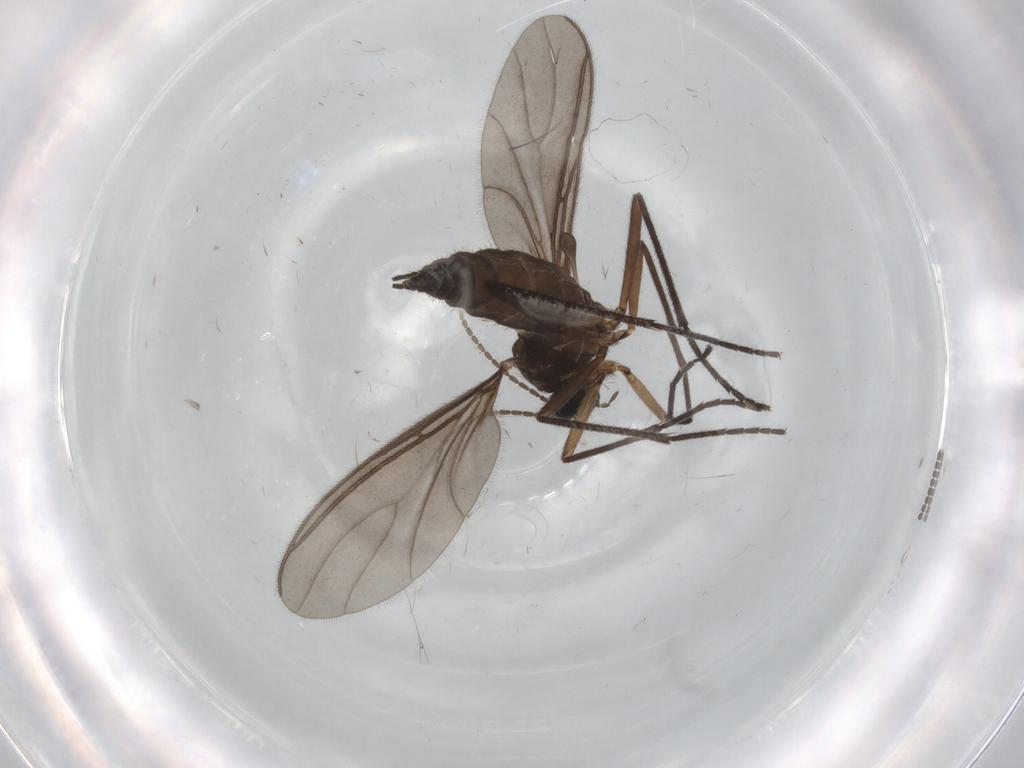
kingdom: Animalia
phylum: Arthropoda
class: Insecta
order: Diptera
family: Sciaridae
